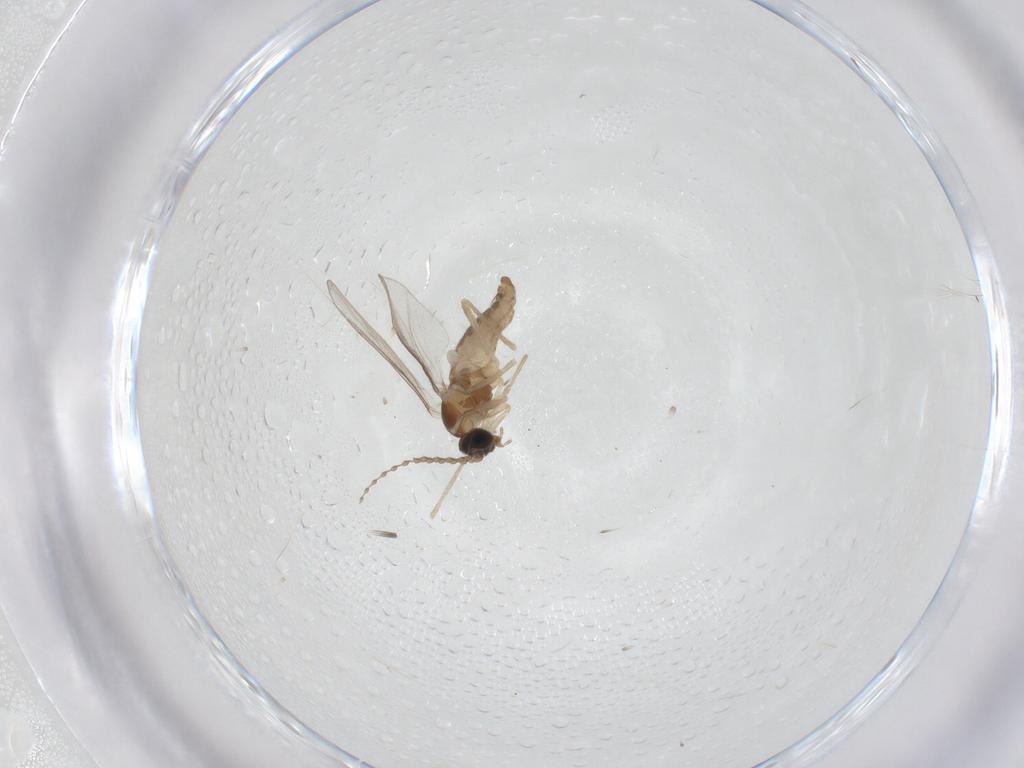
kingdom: Animalia
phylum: Arthropoda
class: Insecta
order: Diptera
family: Cecidomyiidae
